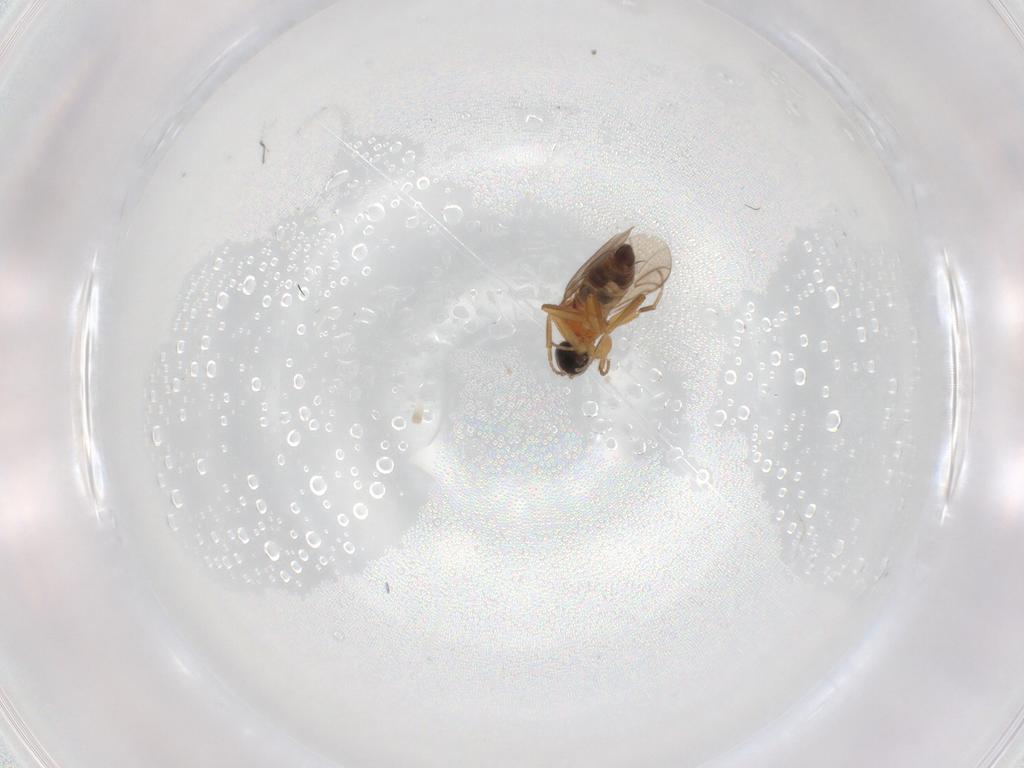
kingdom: Animalia
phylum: Arthropoda
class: Insecta
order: Diptera
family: Hybotidae
